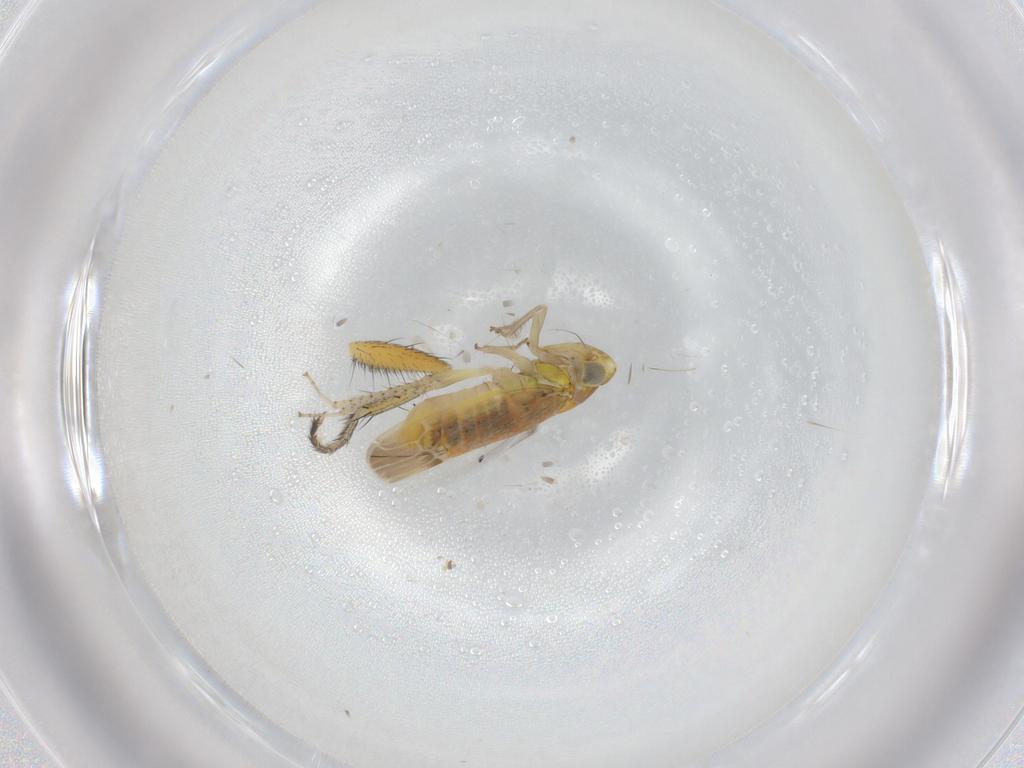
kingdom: Animalia
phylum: Arthropoda
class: Insecta
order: Hemiptera
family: Cicadellidae
